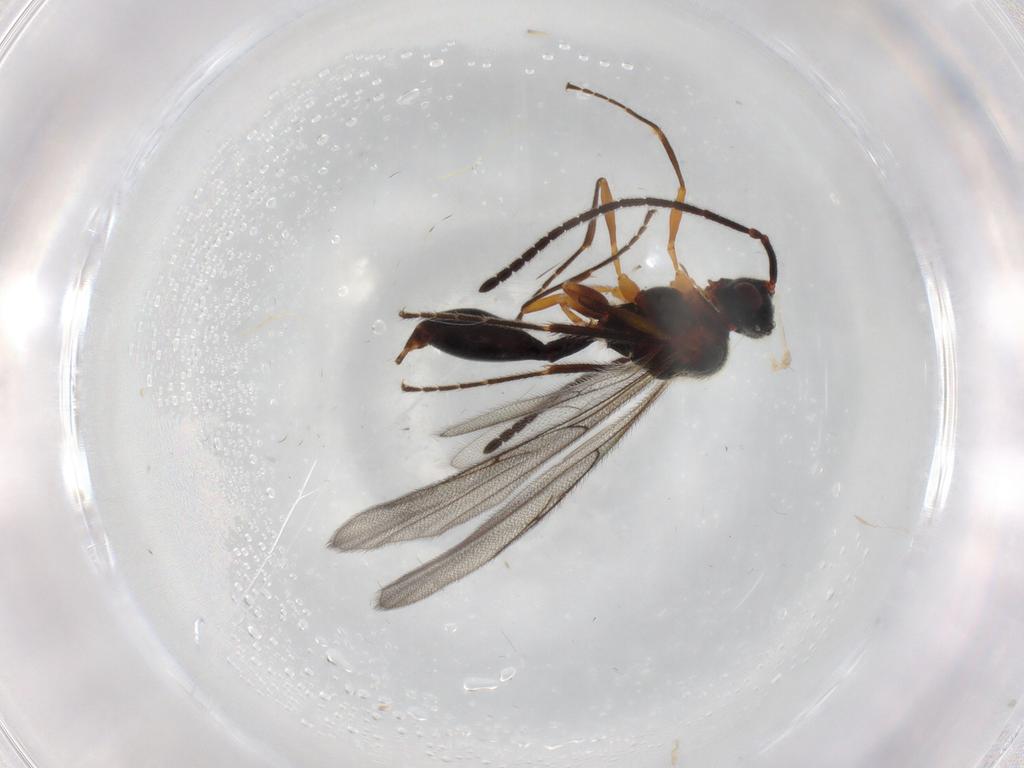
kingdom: Animalia
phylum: Arthropoda
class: Insecta
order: Hymenoptera
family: Diapriidae
